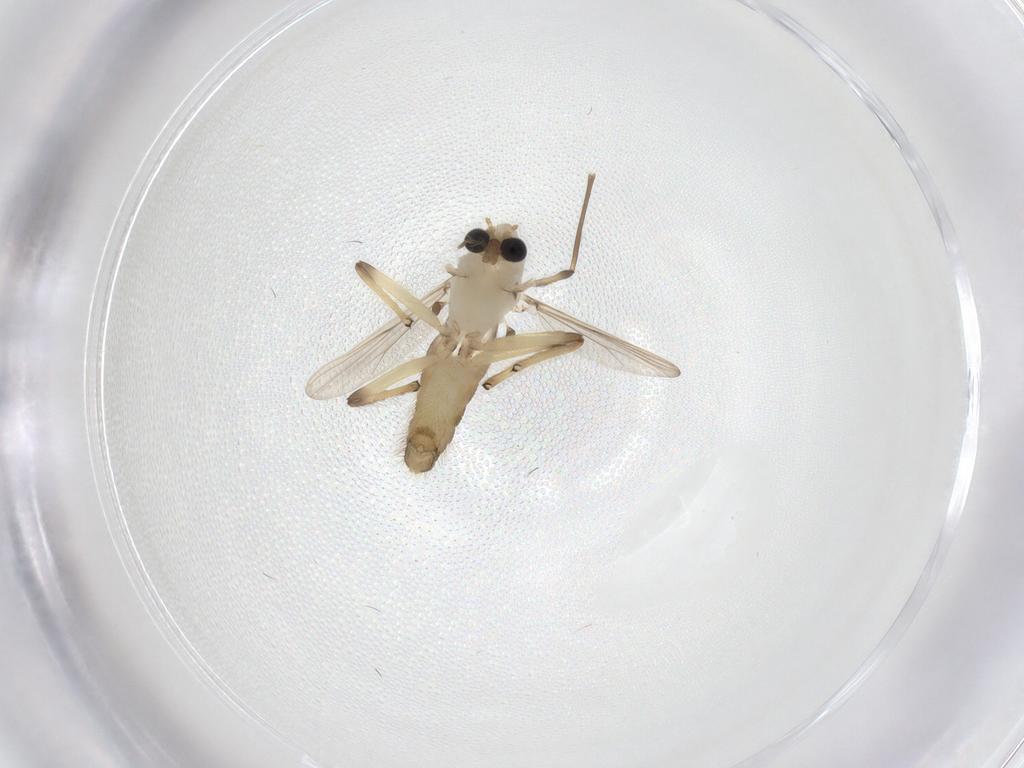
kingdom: Animalia
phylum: Arthropoda
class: Insecta
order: Diptera
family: Chironomidae
